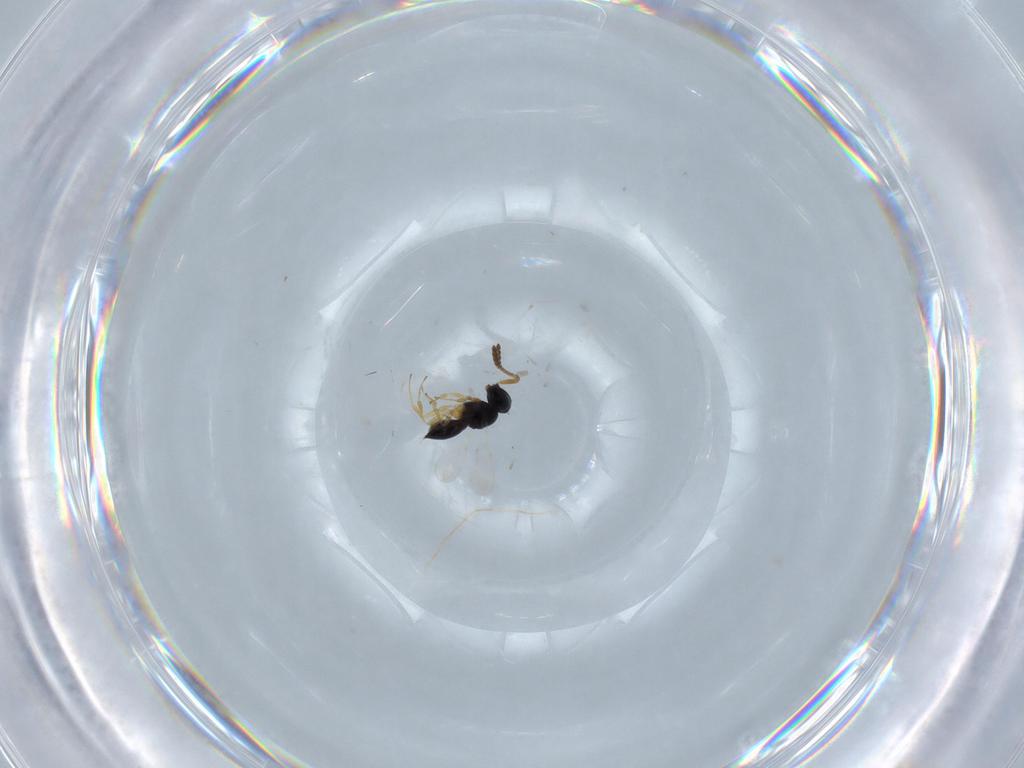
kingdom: Animalia
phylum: Arthropoda
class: Insecta
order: Hymenoptera
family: Scelionidae
